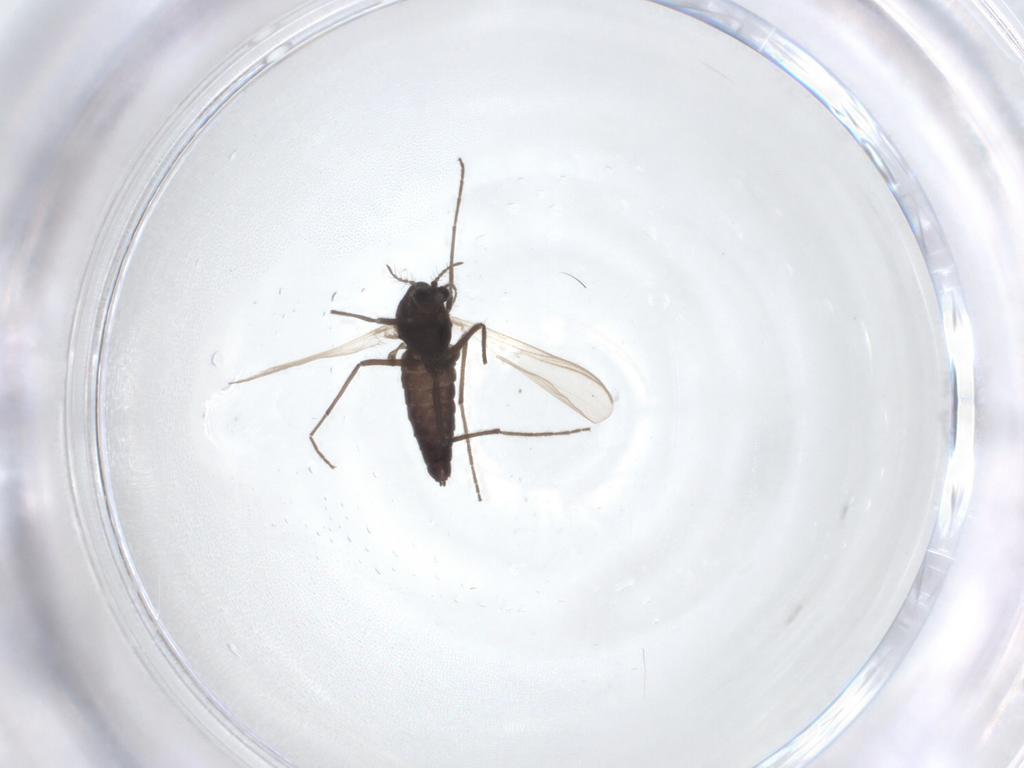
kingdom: Animalia
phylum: Arthropoda
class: Insecta
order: Diptera
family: Chironomidae
